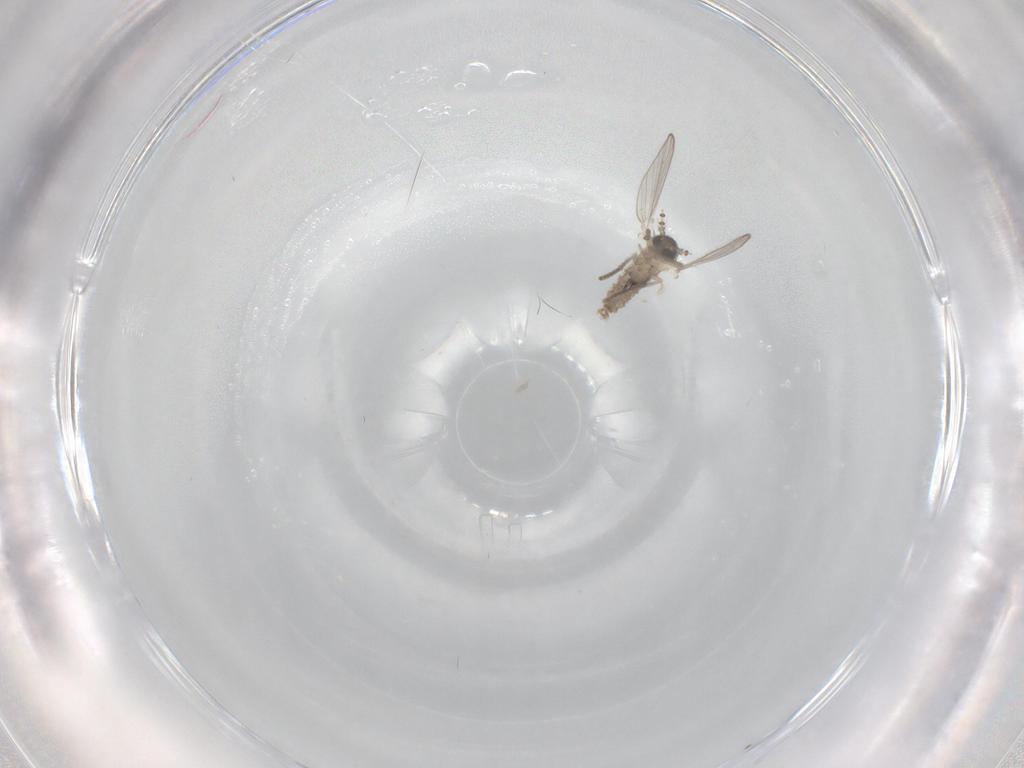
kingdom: Animalia
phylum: Arthropoda
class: Insecta
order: Diptera
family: Psychodidae
